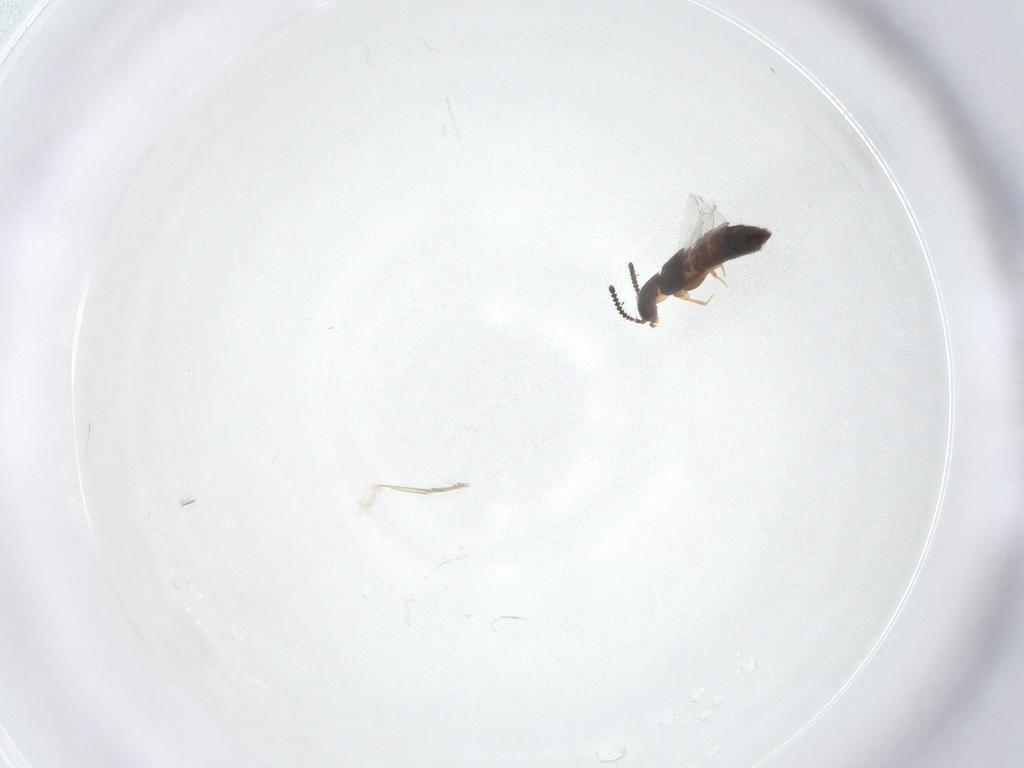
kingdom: Animalia
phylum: Arthropoda
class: Insecta
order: Coleoptera
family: Staphylinidae
